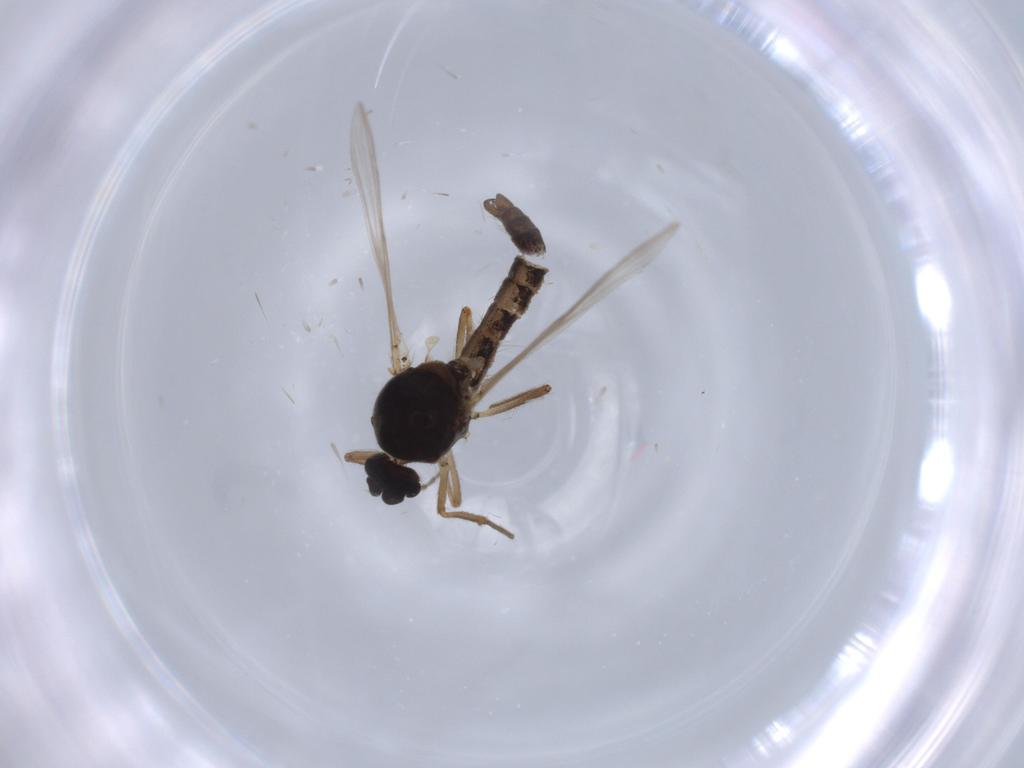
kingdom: Animalia
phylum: Arthropoda
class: Insecta
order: Diptera
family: Ceratopogonidae
